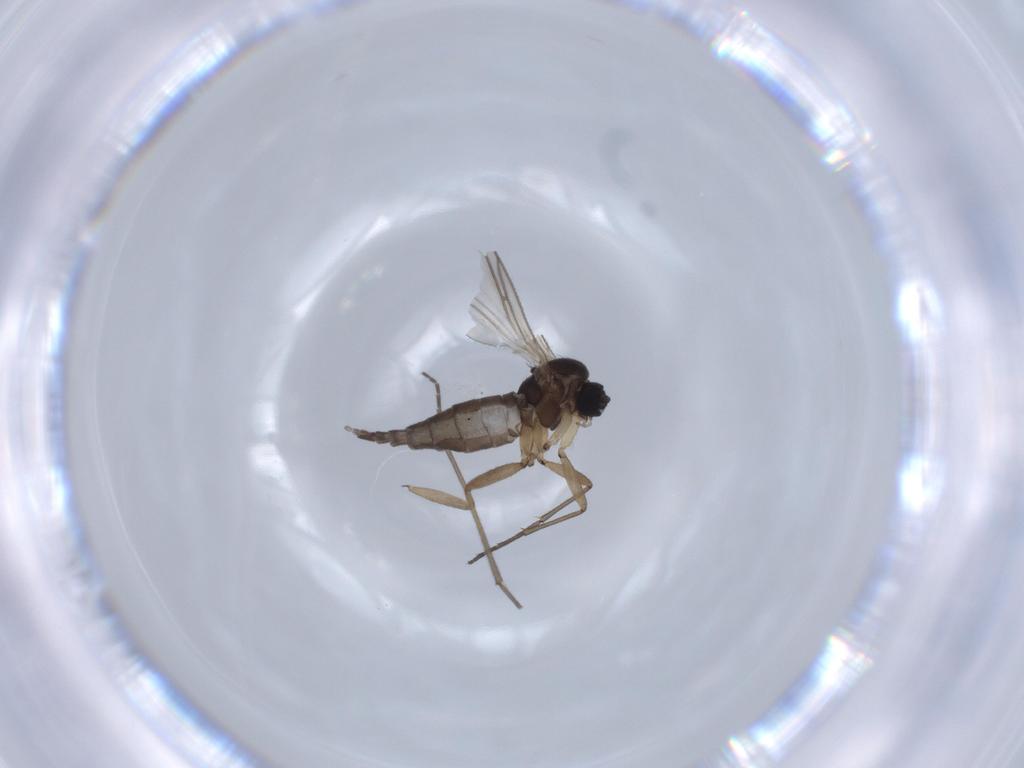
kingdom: Animalia
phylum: Arthropoda
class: Insecta
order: Diptera
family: Sciaridae
